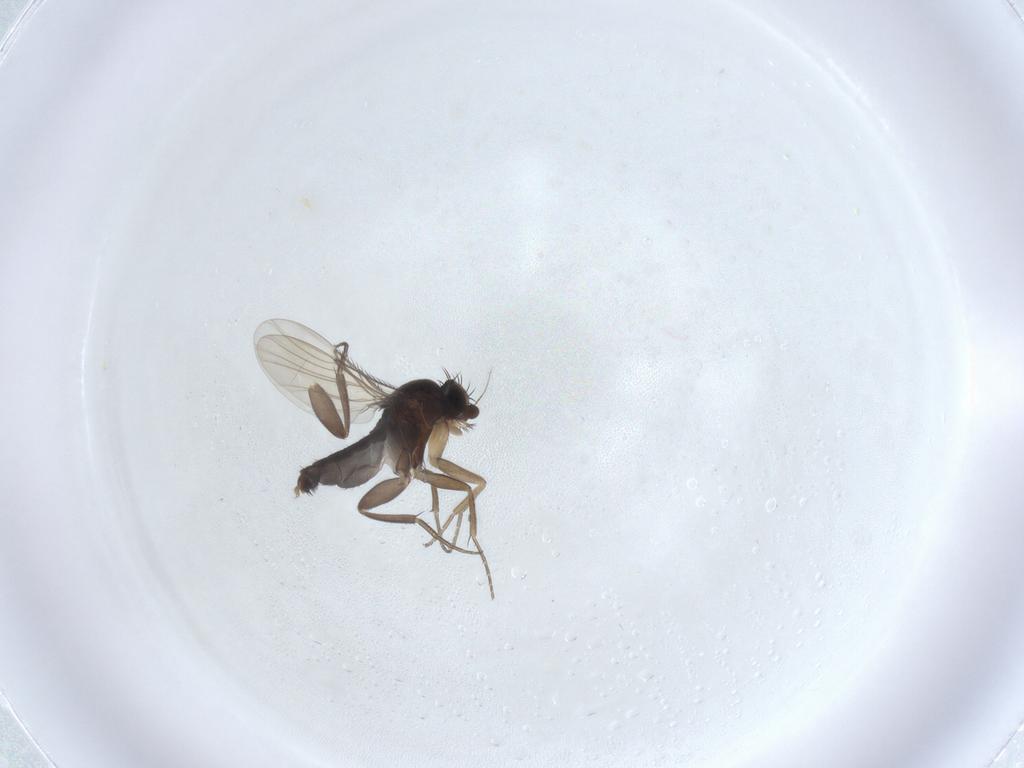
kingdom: Animalia
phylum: Arthropoda
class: Insecta
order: Diptera
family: Phoridae
